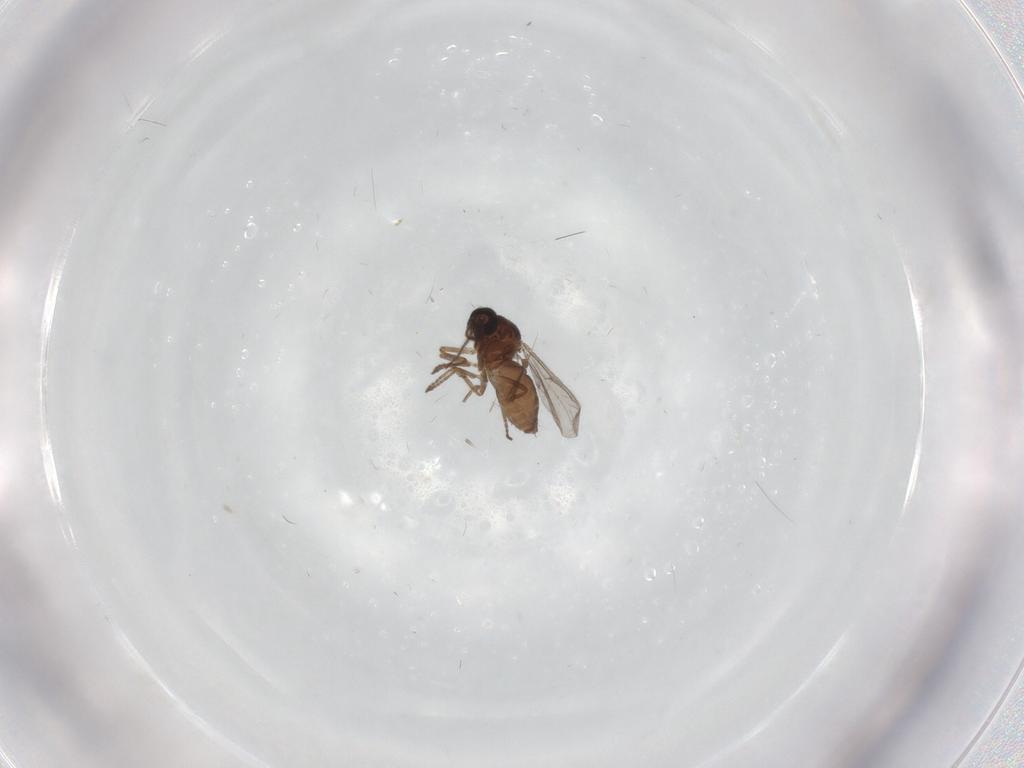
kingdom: Animalia
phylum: Arthropoda
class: Insecta
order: Diptera
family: Ceratopogonidae
